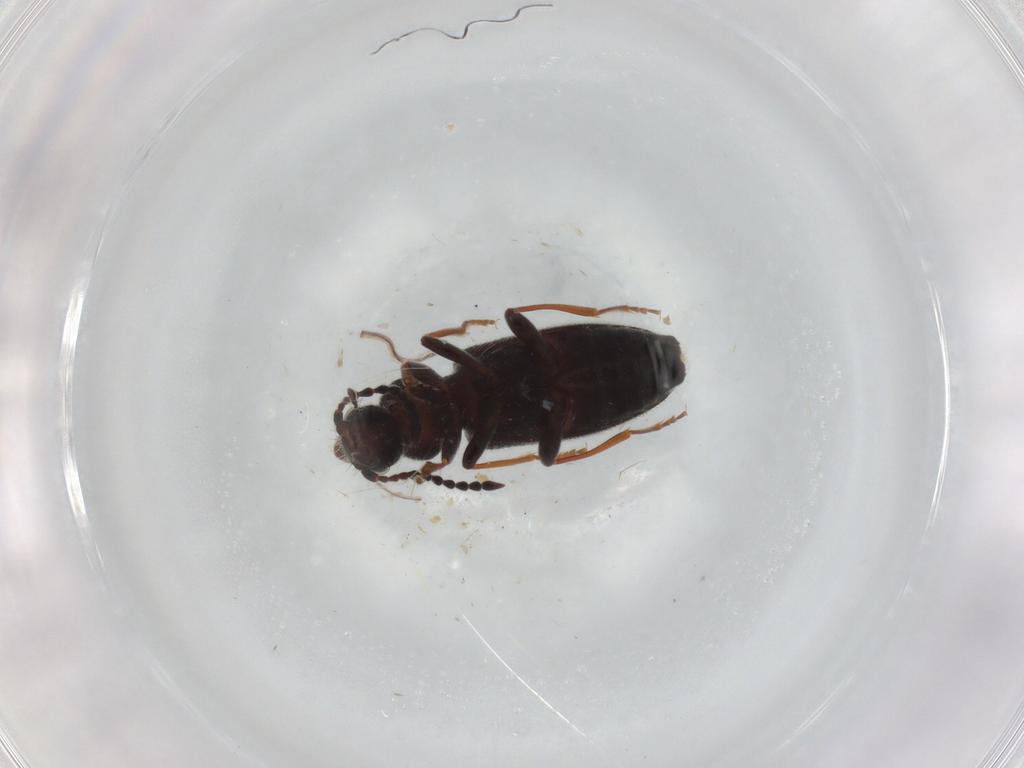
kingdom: Animalia
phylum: Arthropoda
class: Insecta
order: Coleoptera
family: Anthicidae
